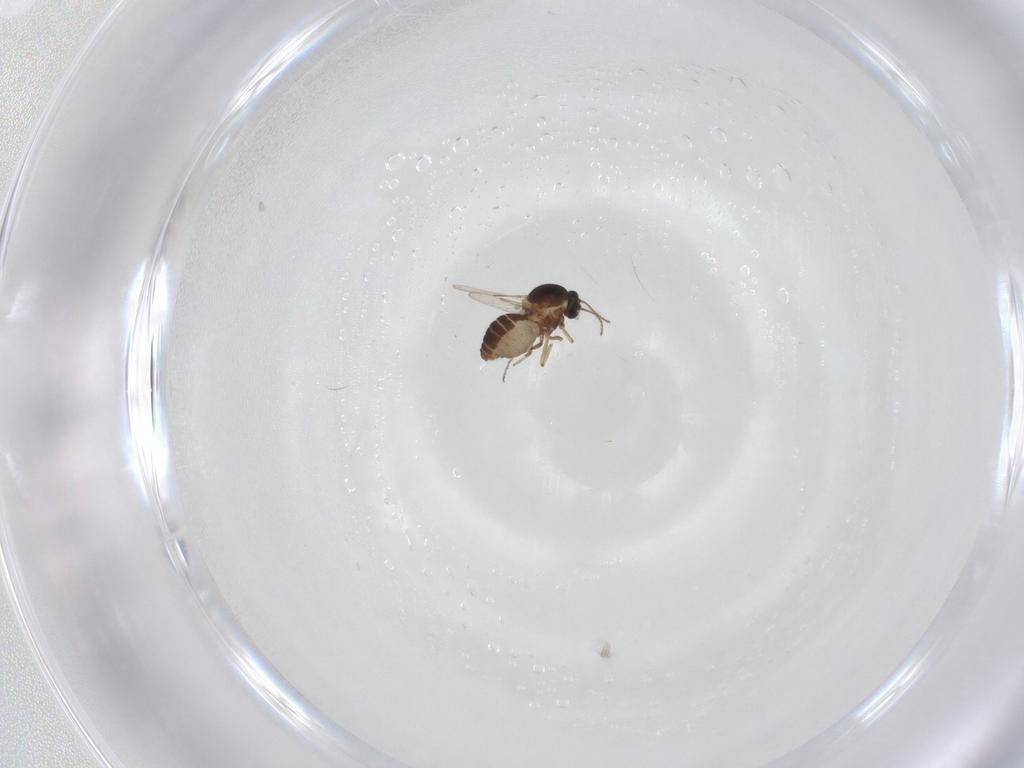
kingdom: Animalia
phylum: Arthropoda
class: Insecta
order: Diptera
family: Ceratopogonidae
